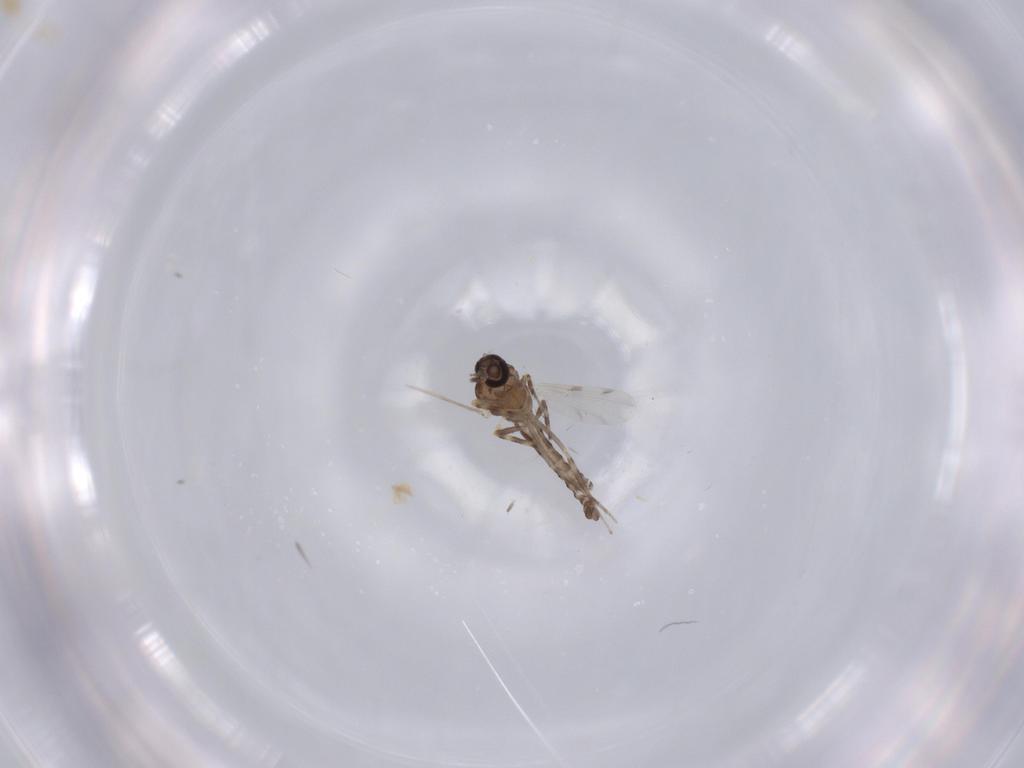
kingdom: Animalia
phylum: Arthropoda
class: Insecta
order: Diptera
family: Ceratopogonidae
